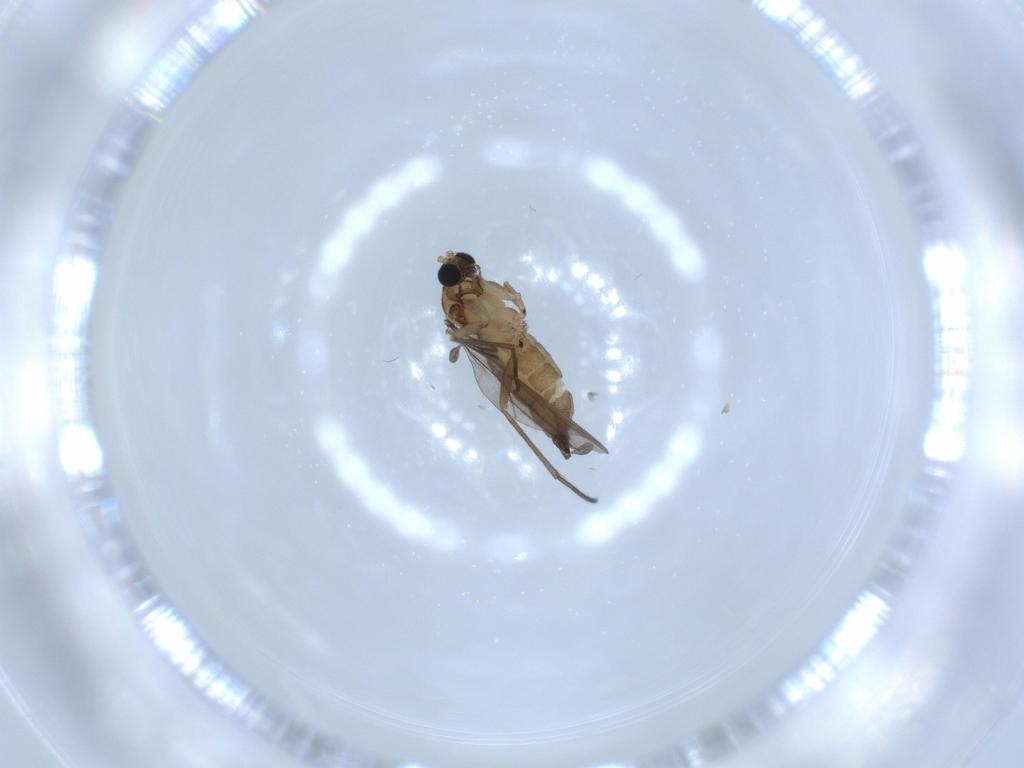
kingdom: Animalia
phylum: Arthropoda
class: Insecta
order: Diptera
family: Sciaridae
